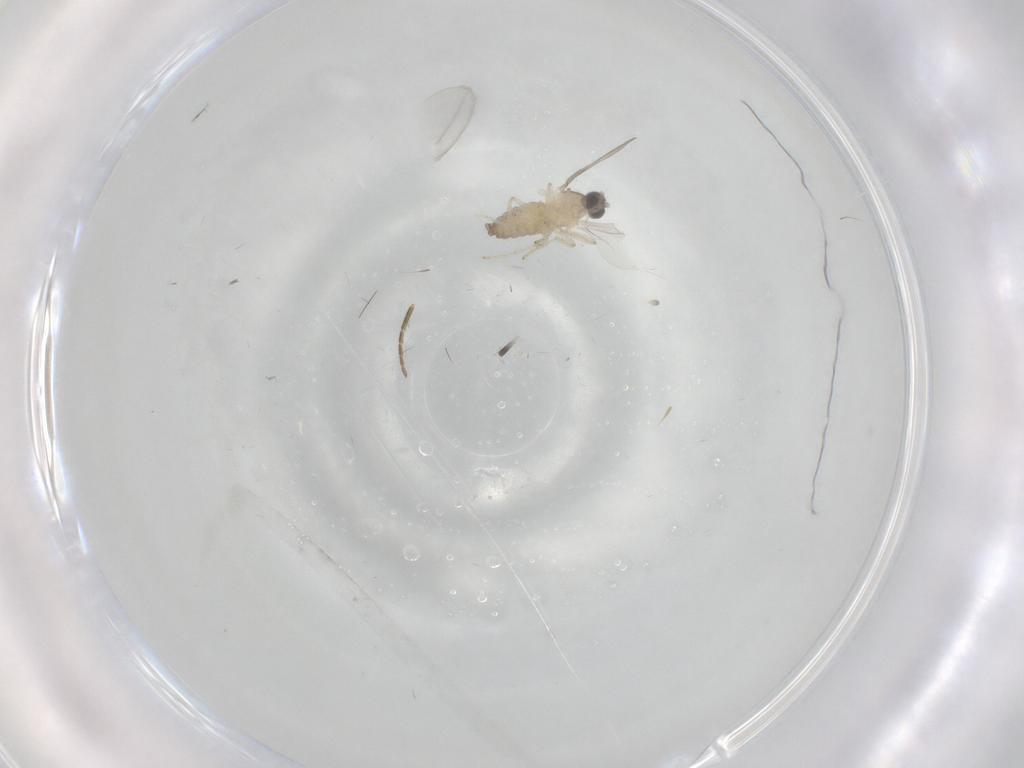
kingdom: Animalia
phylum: Arthropoda
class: Insecta
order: Diptera
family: Cecidomyiidae
